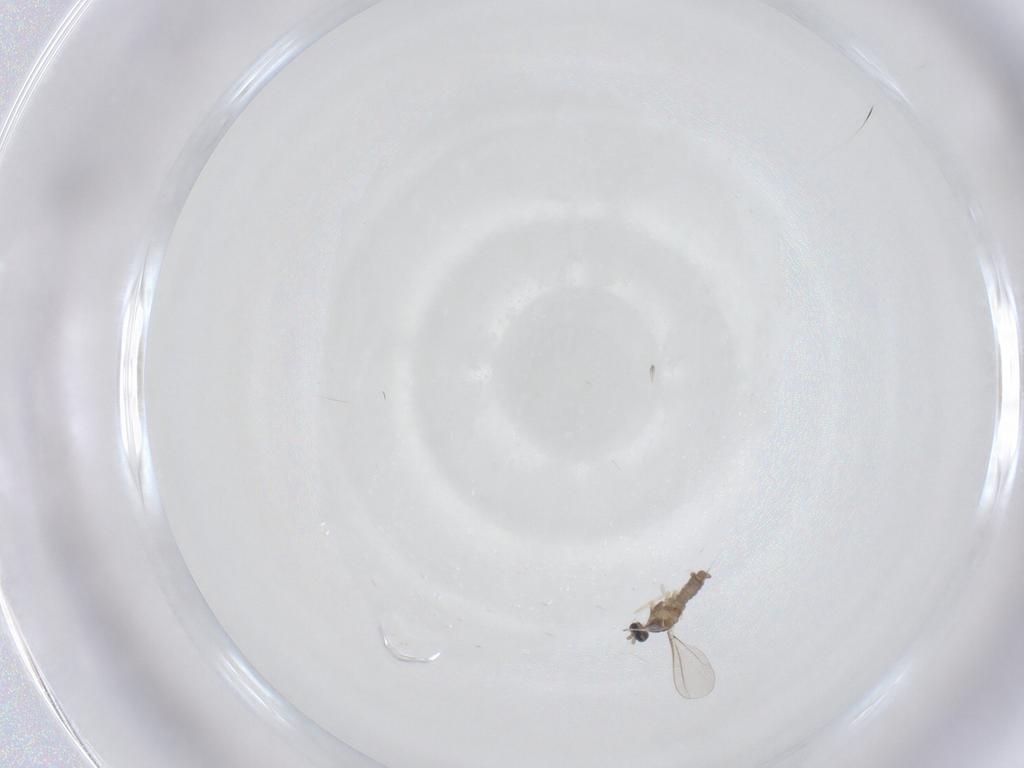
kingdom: Animalia
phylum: Arthropoda
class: Insecta
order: Diptera
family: Cecidomyiidae
